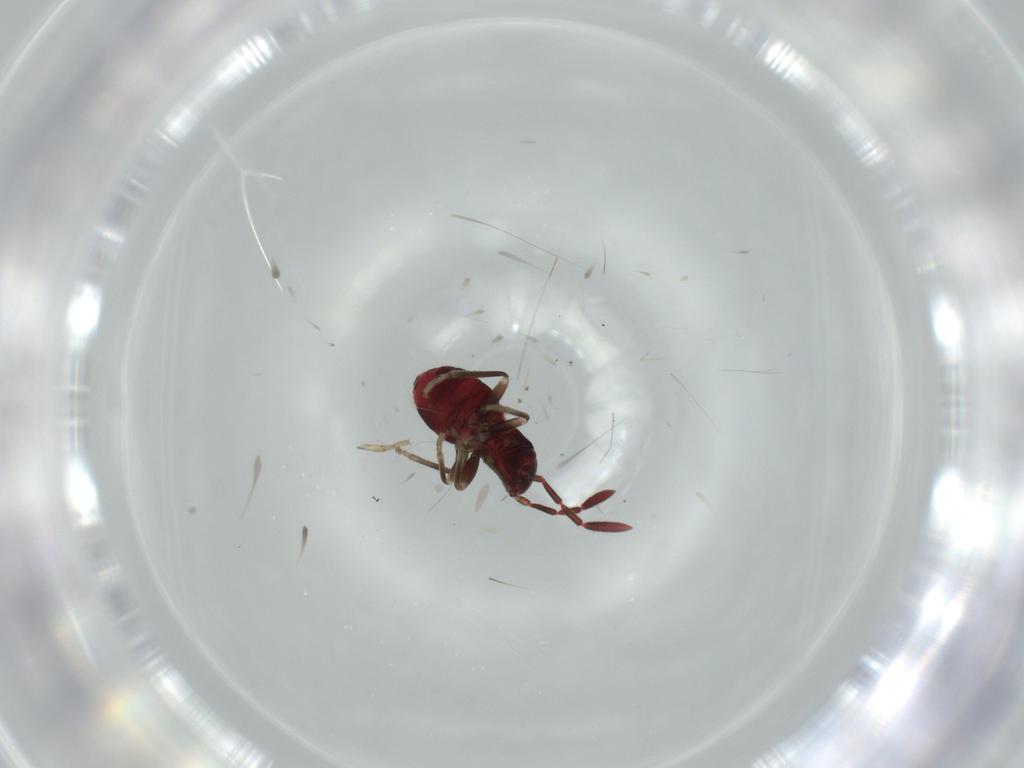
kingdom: Animalia
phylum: Arthropoda
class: Insecta
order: Hemiptera
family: Rhyparochromidae
